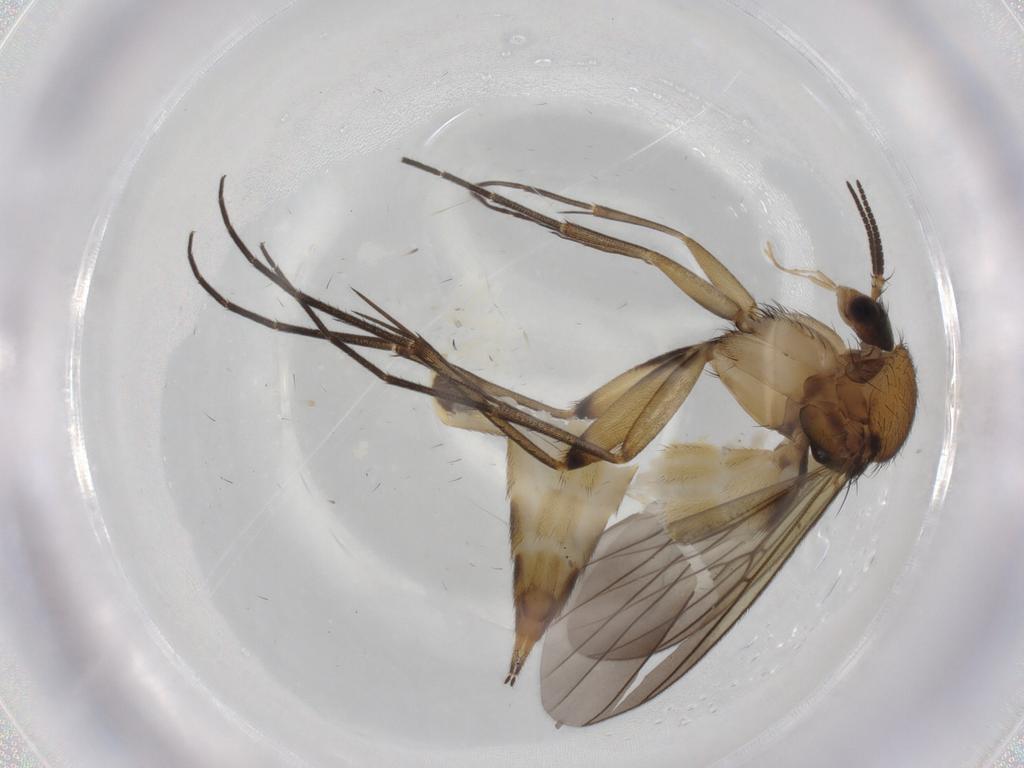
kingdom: Animalia
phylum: Arthropoda
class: Insecta
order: Diptera
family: Mycetophilidae
